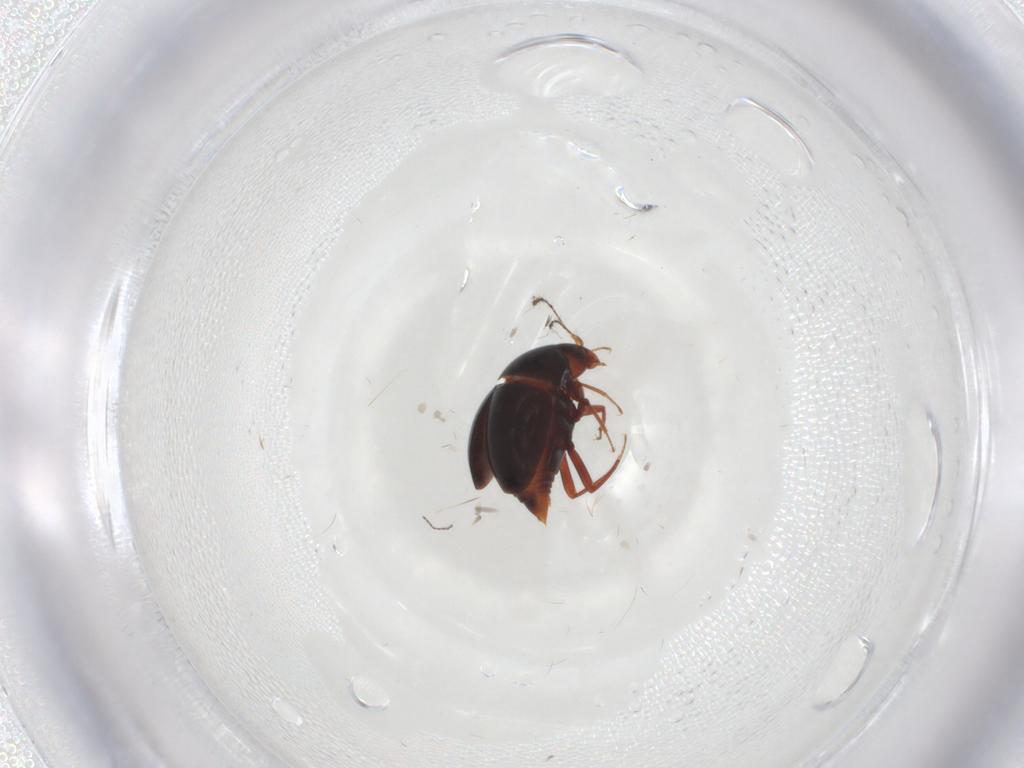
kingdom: Animalia
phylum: Arthropoda
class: Insecta
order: Coleoptera
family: Staphylinidae
